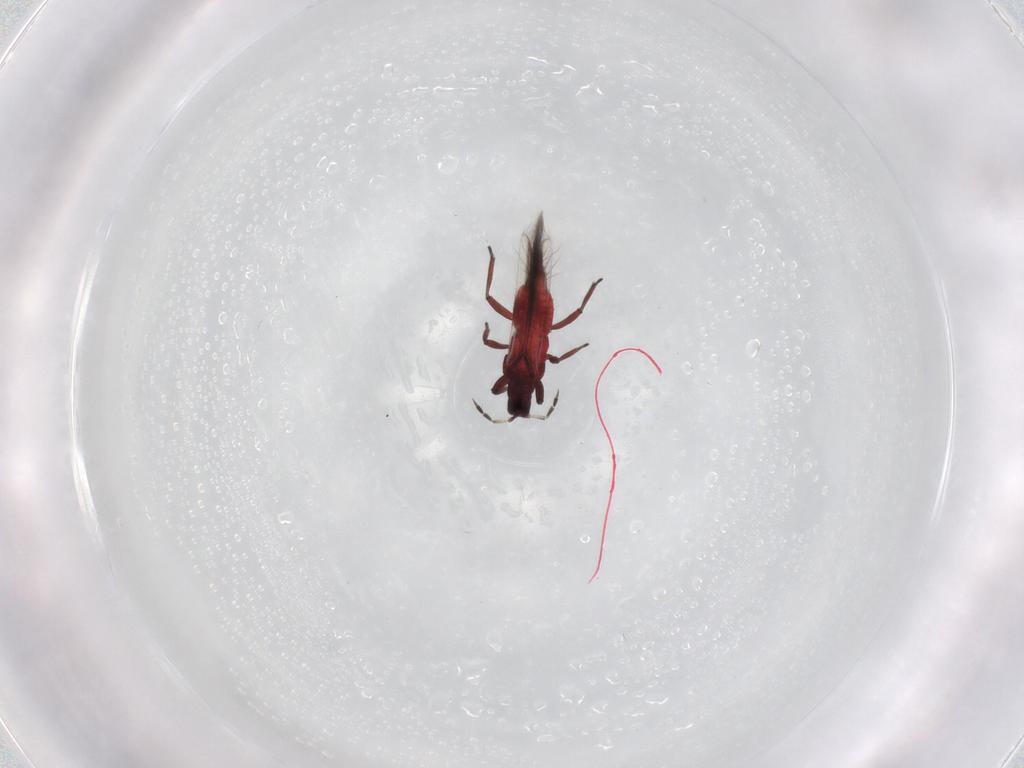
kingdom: Animalia
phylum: Arthropoda
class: Insecta
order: Thysanoptera
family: Aeolothripidae
